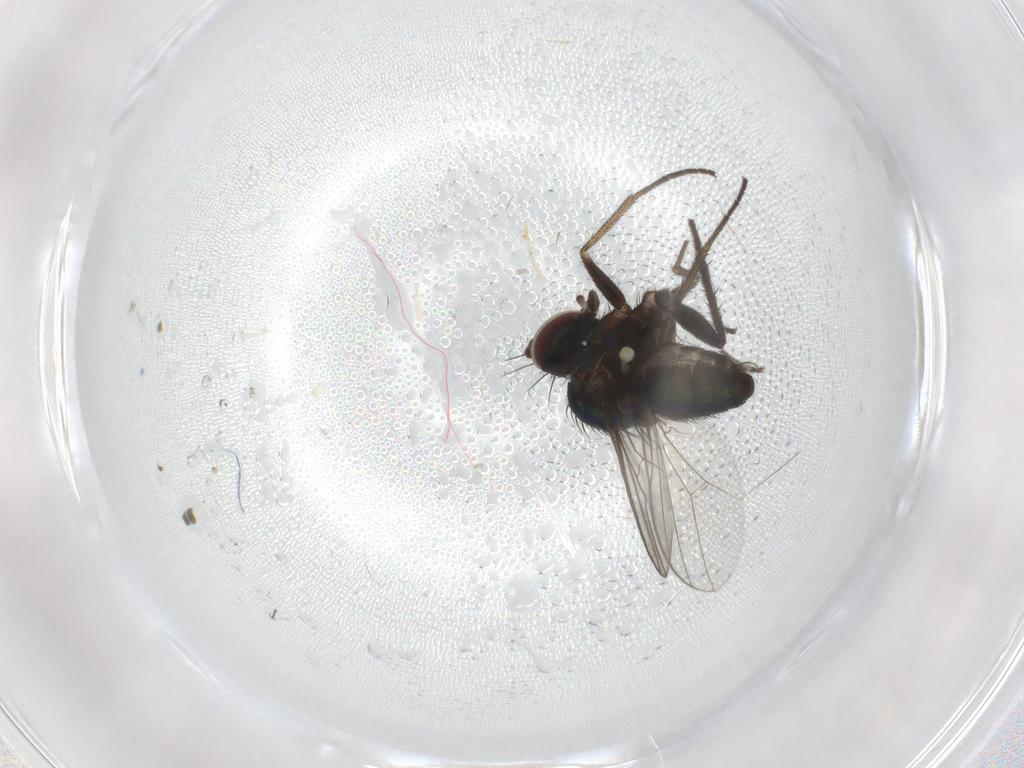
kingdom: Animalia
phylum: Arthropoda
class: Insecta
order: Diptera
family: Dolichopodidae
